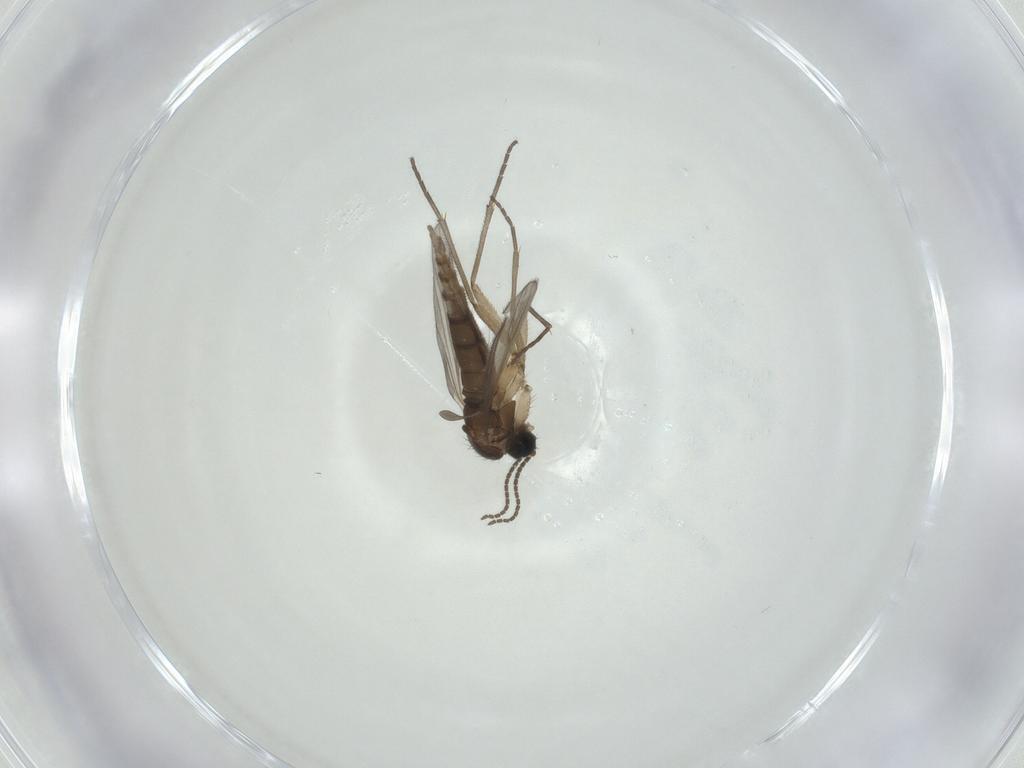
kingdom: Animalia
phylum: Arthropoda
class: Insecta
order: Diptera
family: Sciaridae
